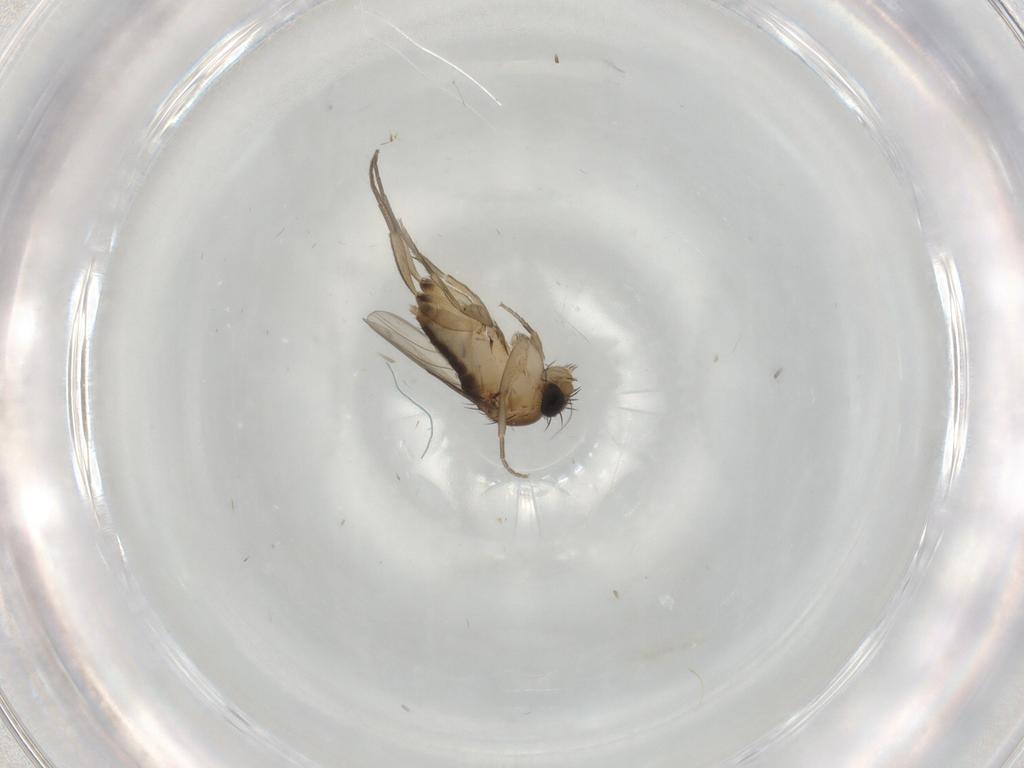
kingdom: Animalia
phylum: Arthropoda
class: Insecta
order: Diptera
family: Phoridae
